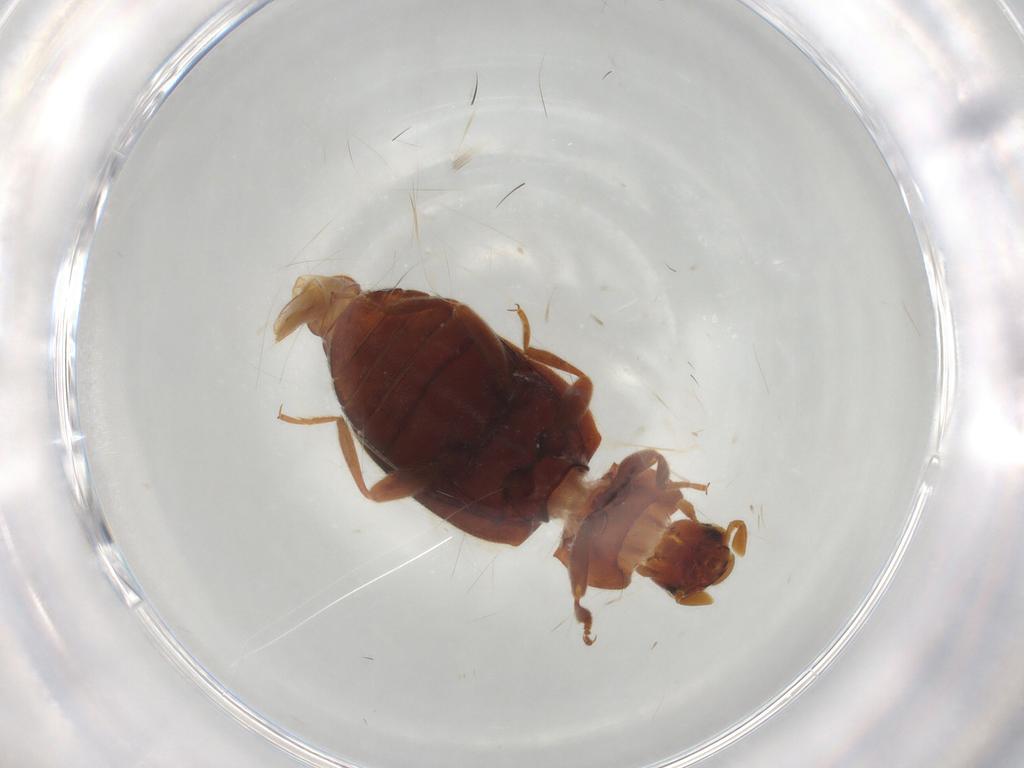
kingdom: Animalia
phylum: Arthropoda
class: Insecta
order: Coleoptera
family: Coccinellidae
